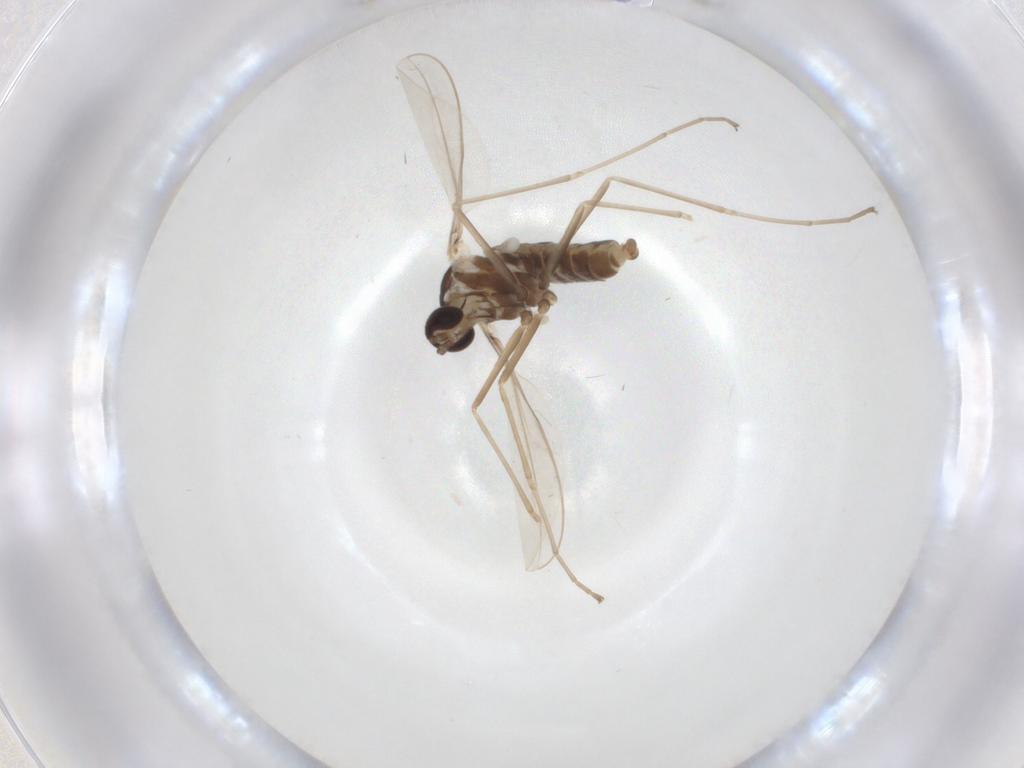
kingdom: Animalia
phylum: Arthropoda
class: Insecta
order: Diptera
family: Cecidomyiidae
